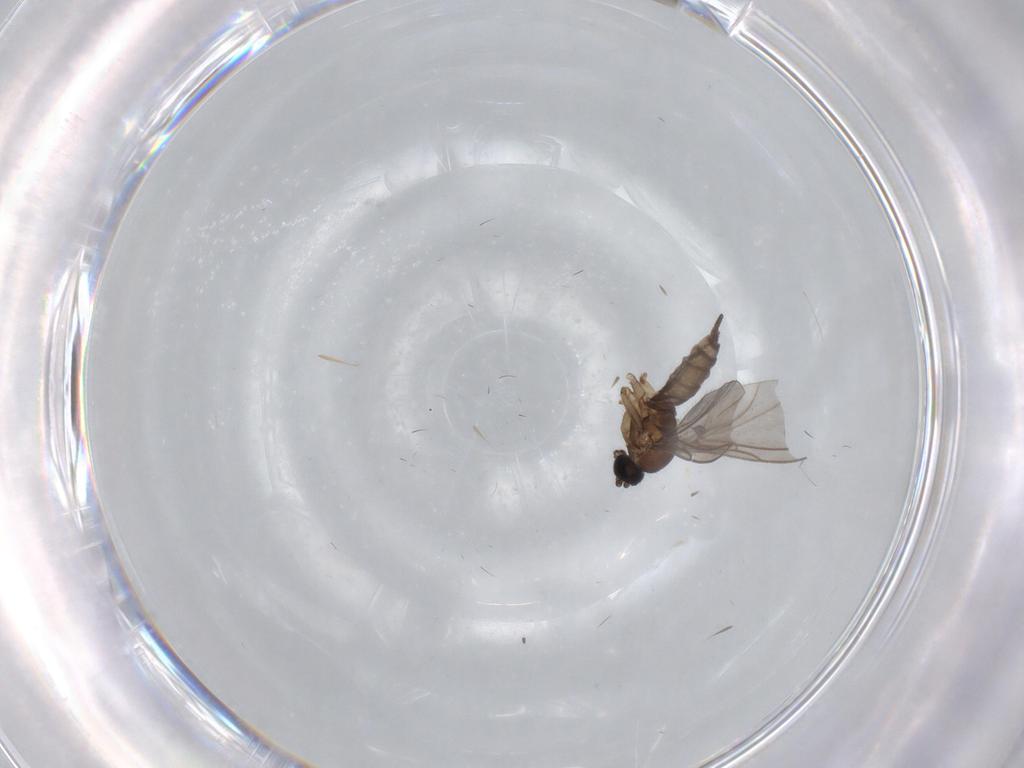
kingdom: Animalia
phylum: Arthropoda
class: Insecta
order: Diptera
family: Sciaridae
